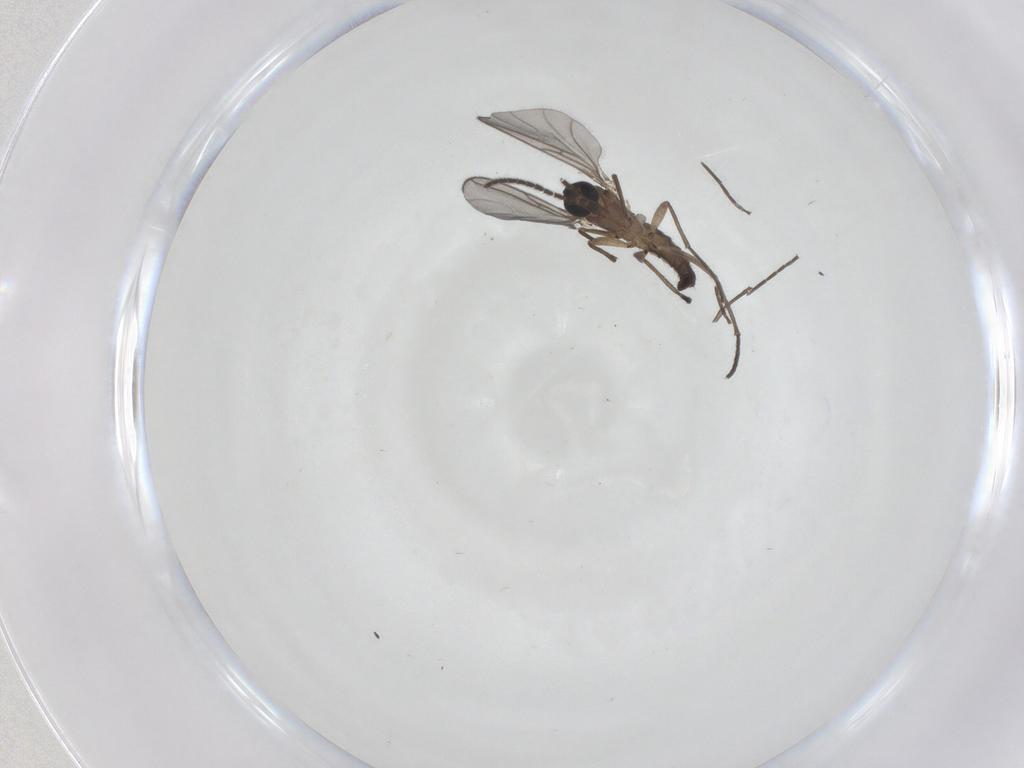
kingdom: Animalia
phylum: Arthropoda
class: Insecta
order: Diptera
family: Sciaridae
